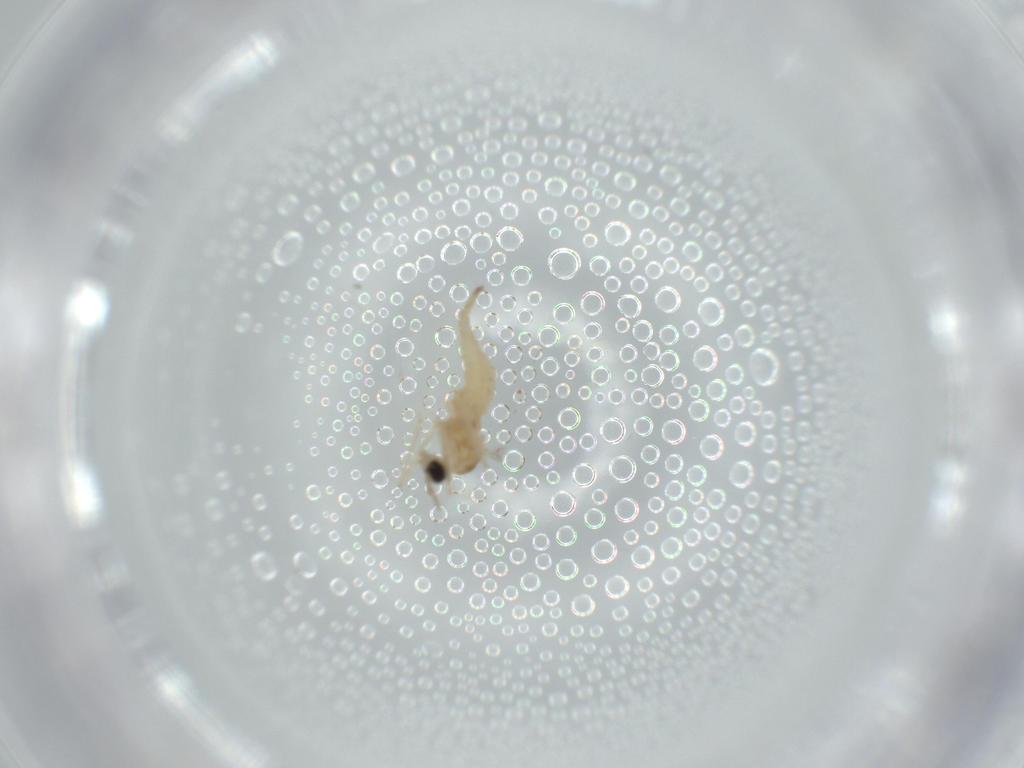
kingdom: Animalia
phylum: Arthropoda
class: Insecta
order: Diptera
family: Cecidomyiidae
